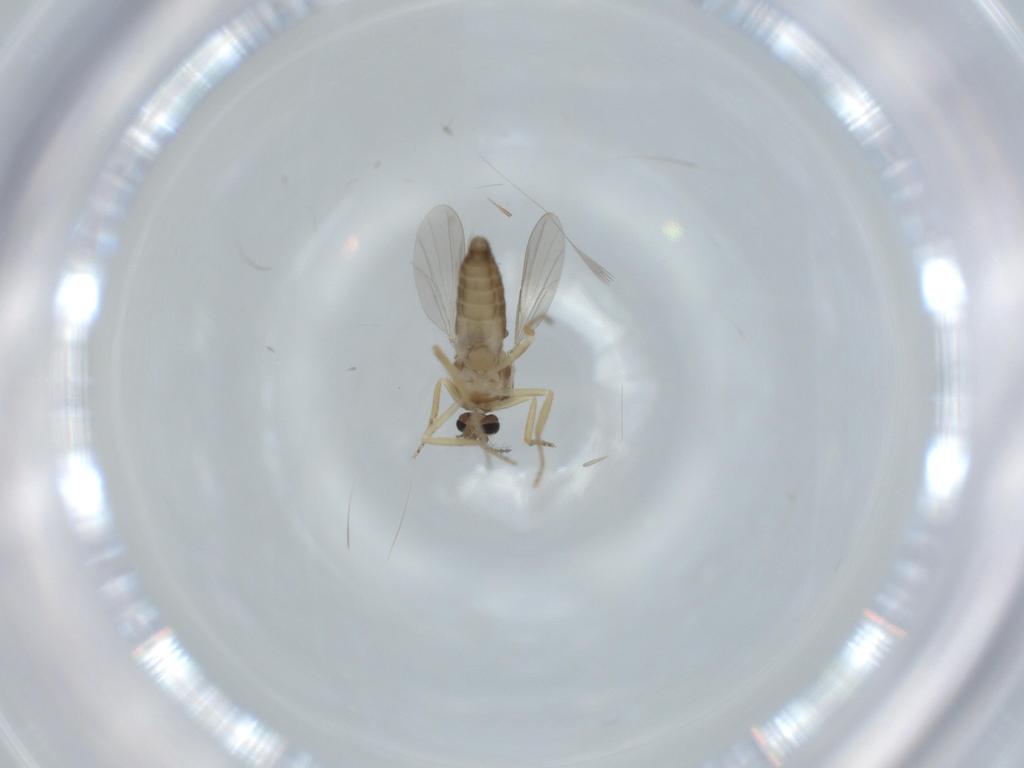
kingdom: Animalia
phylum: Arthropoda
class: Insecta
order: Diptera
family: Ceratopogonidae
